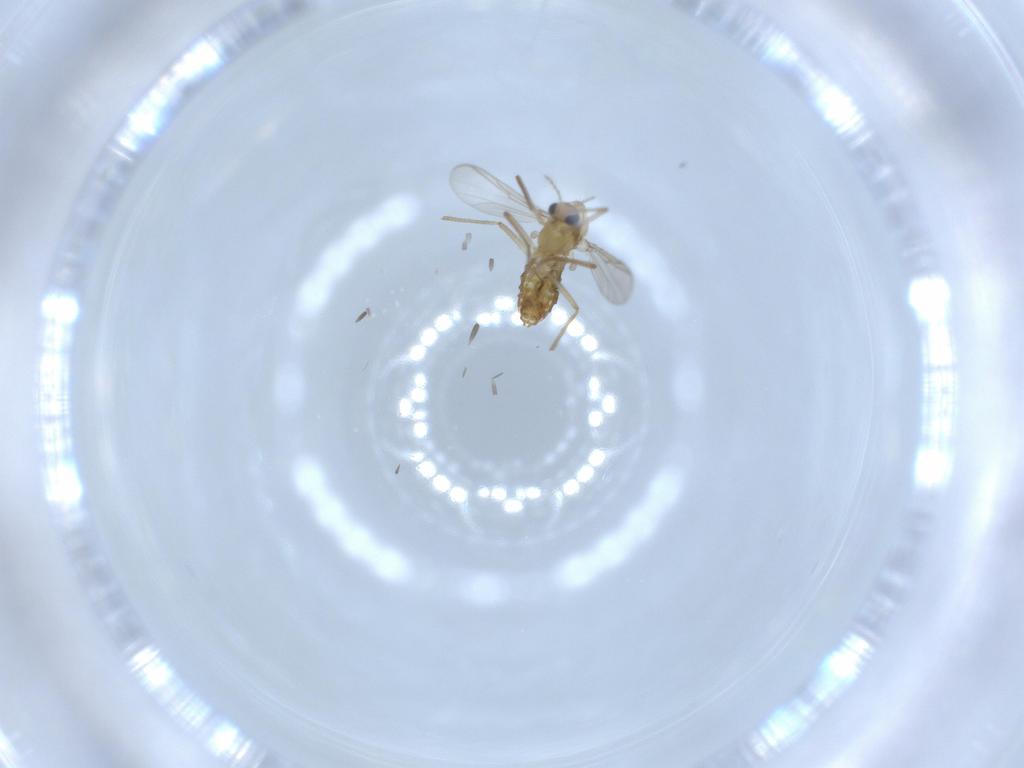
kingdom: Animalia
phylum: Arthropoda
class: Insecta
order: Diptera
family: Chironomidae
